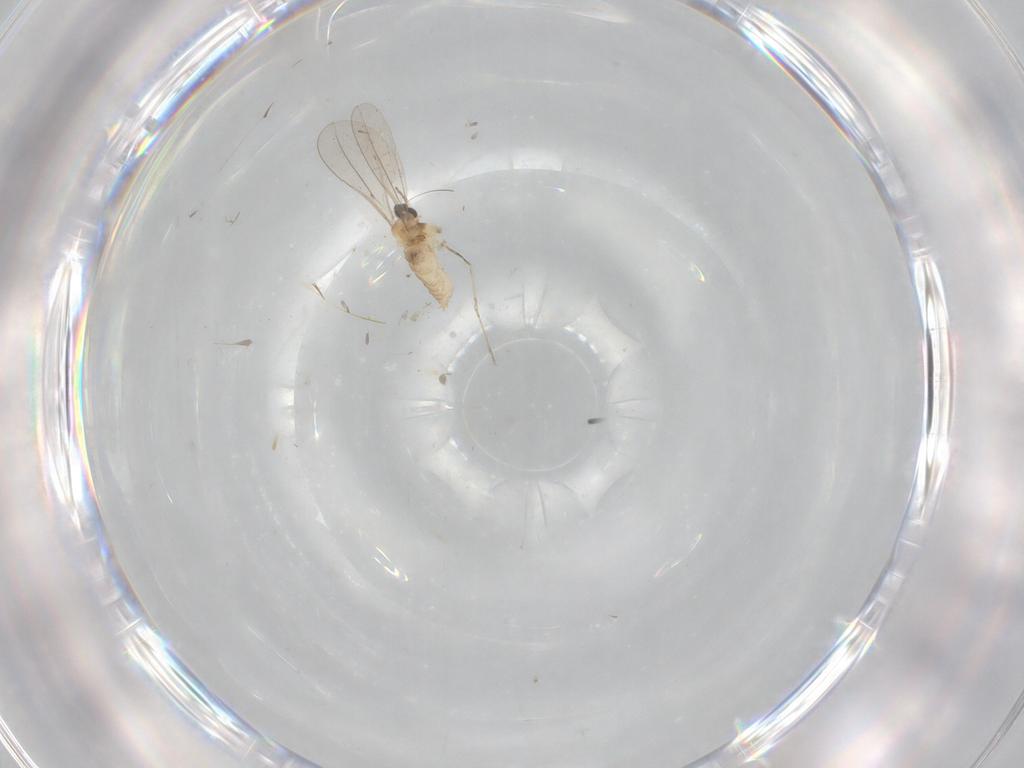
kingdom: Animalia
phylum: Arthropoda
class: Insecta
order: Diptera
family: Cecidomyiidae
